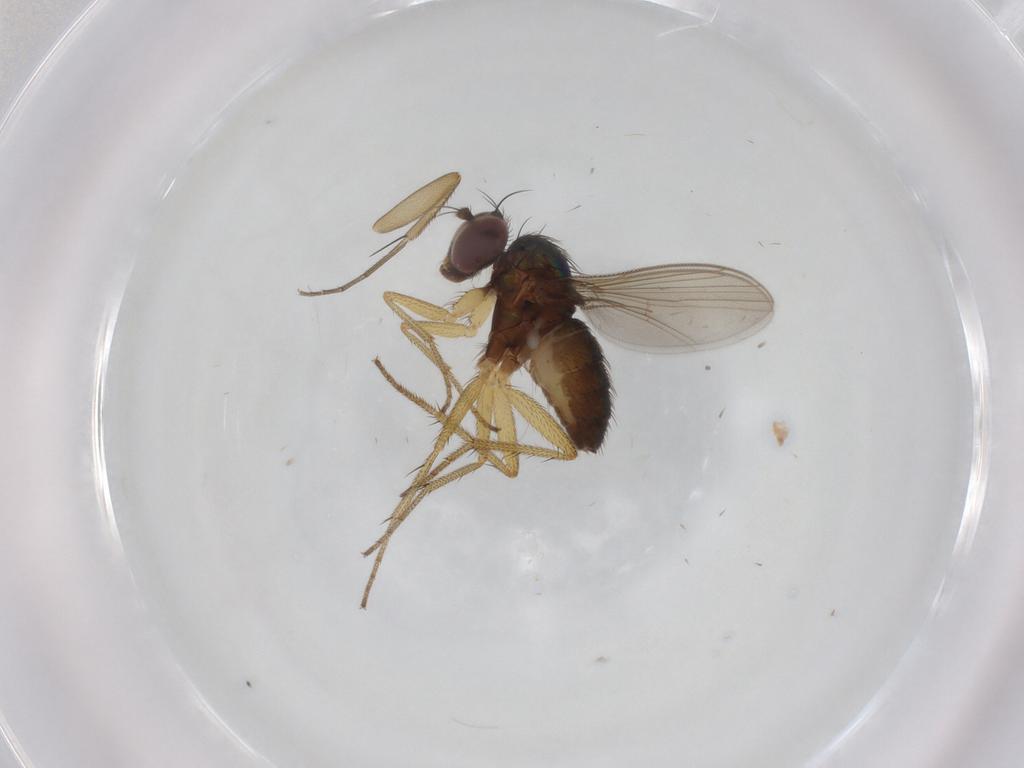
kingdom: Animalia
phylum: Arthropoda
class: Insecta
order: Diptera
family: Dolichopodidae
